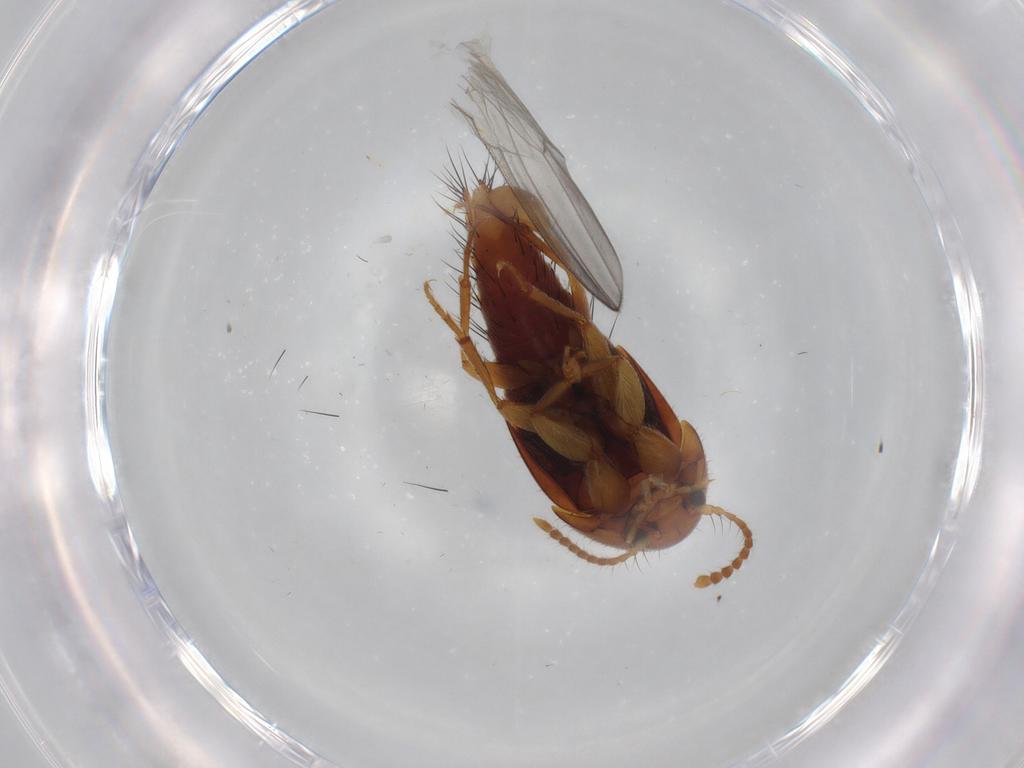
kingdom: Animalia
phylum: Arthropoda
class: Insecta
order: Coleoptera
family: Staphylinidae
